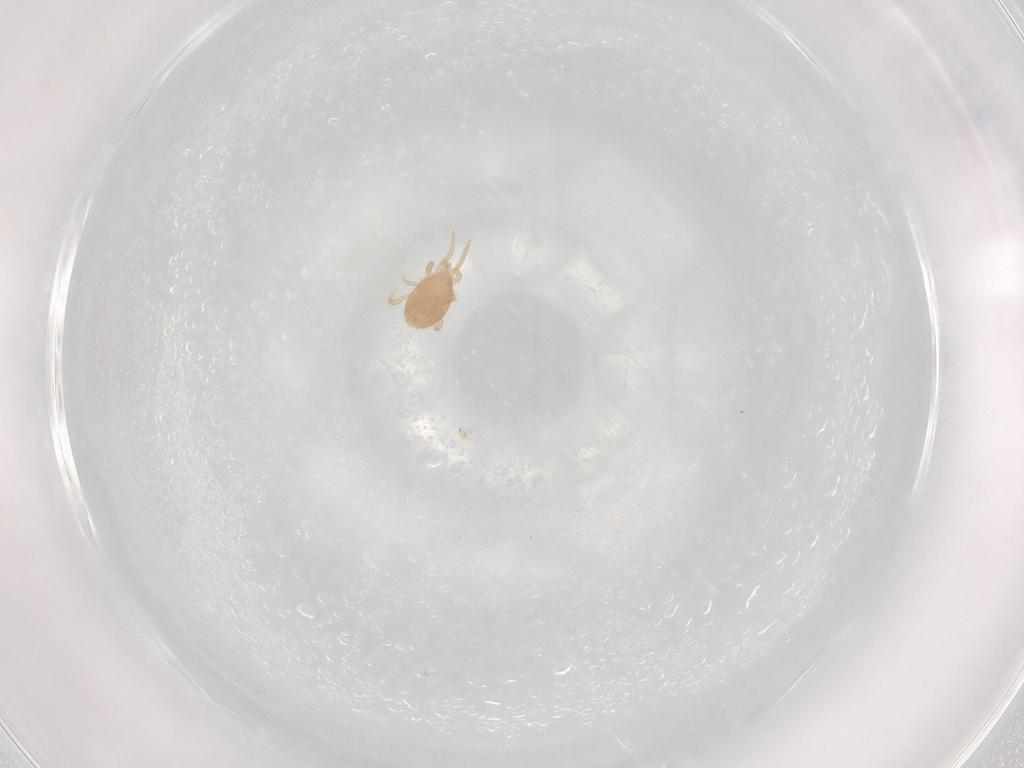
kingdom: Animalia
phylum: Arthropoda
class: Arachnida
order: Mesostigmata
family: Laelapidae
